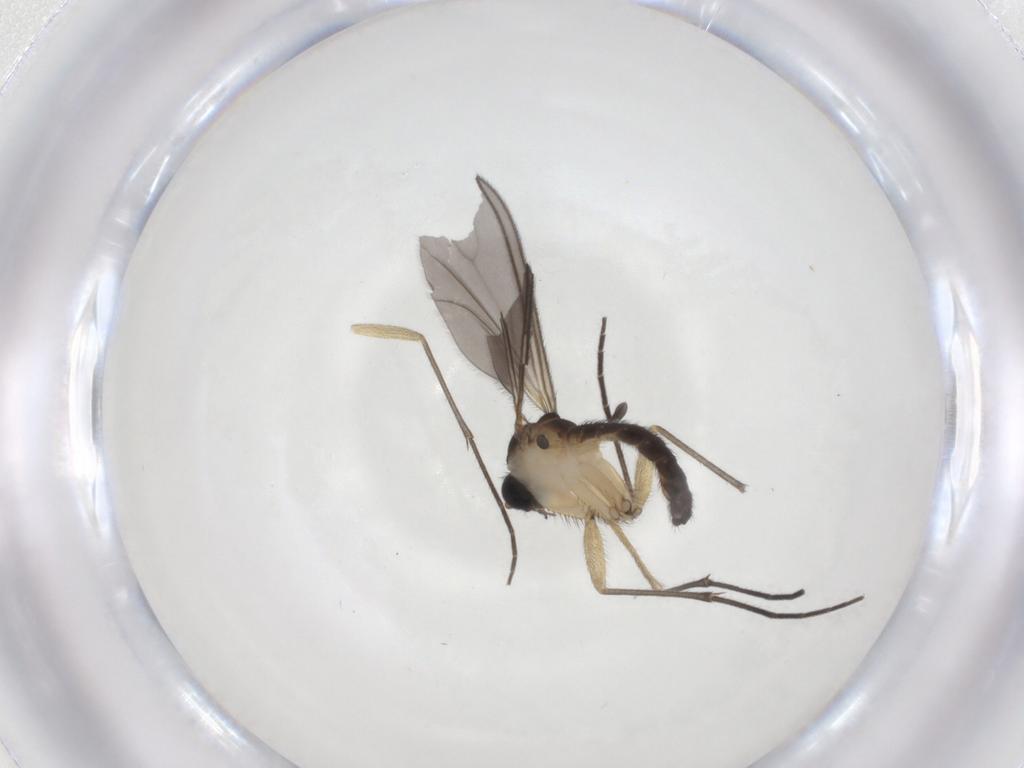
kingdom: Animalia
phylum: Arthropoda
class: Insecta
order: Diptera
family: Sciaridae
